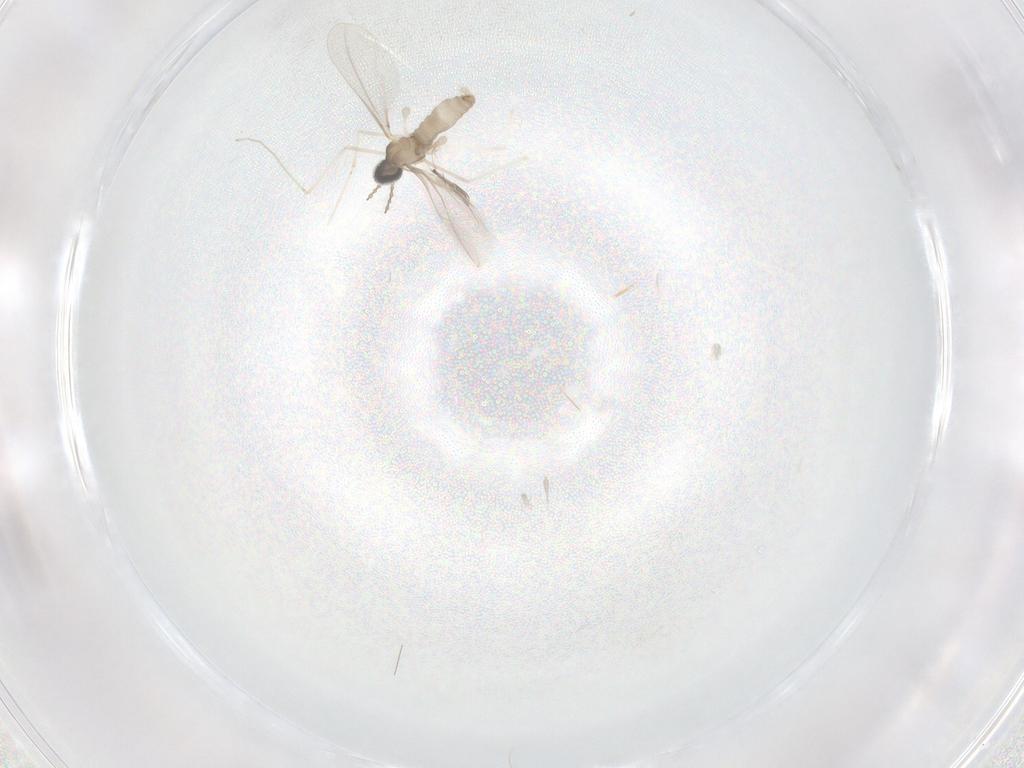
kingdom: Animalia
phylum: Arthropoda
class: Insecta
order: Diptera
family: Cecidomyiidae
